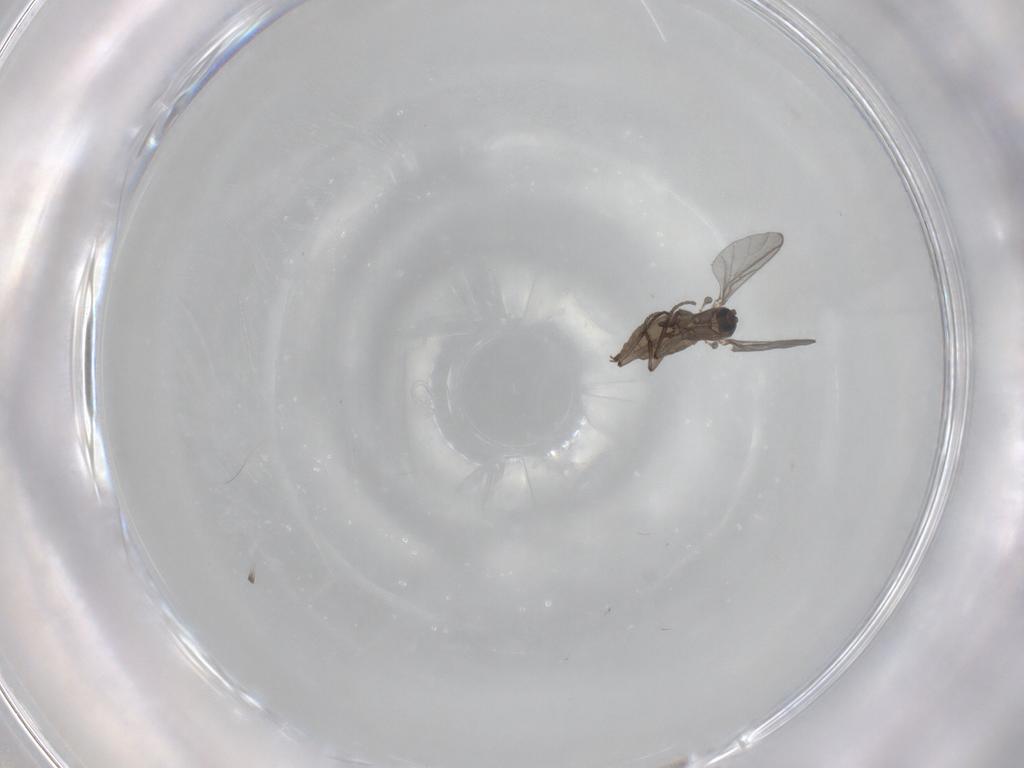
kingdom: Animalia
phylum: Arthropoda
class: Insecta
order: Diptera
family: Sciaridae
